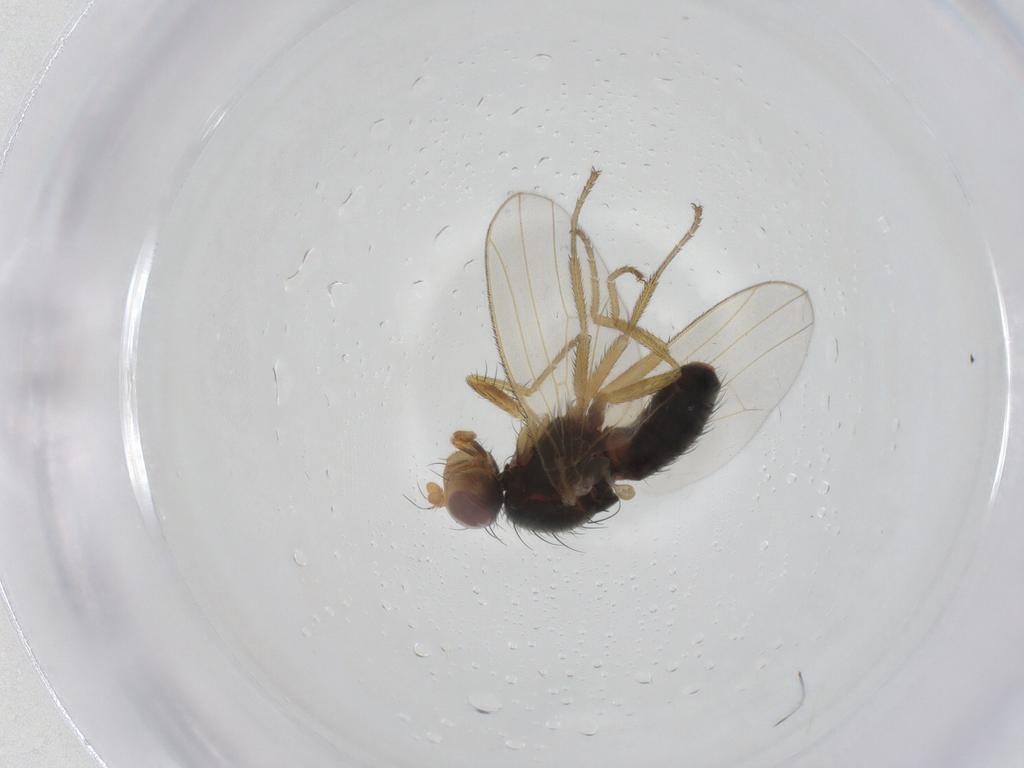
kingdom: Animalia
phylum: Arthropoda
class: Insecta
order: Diptera
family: Heleomyzidae
